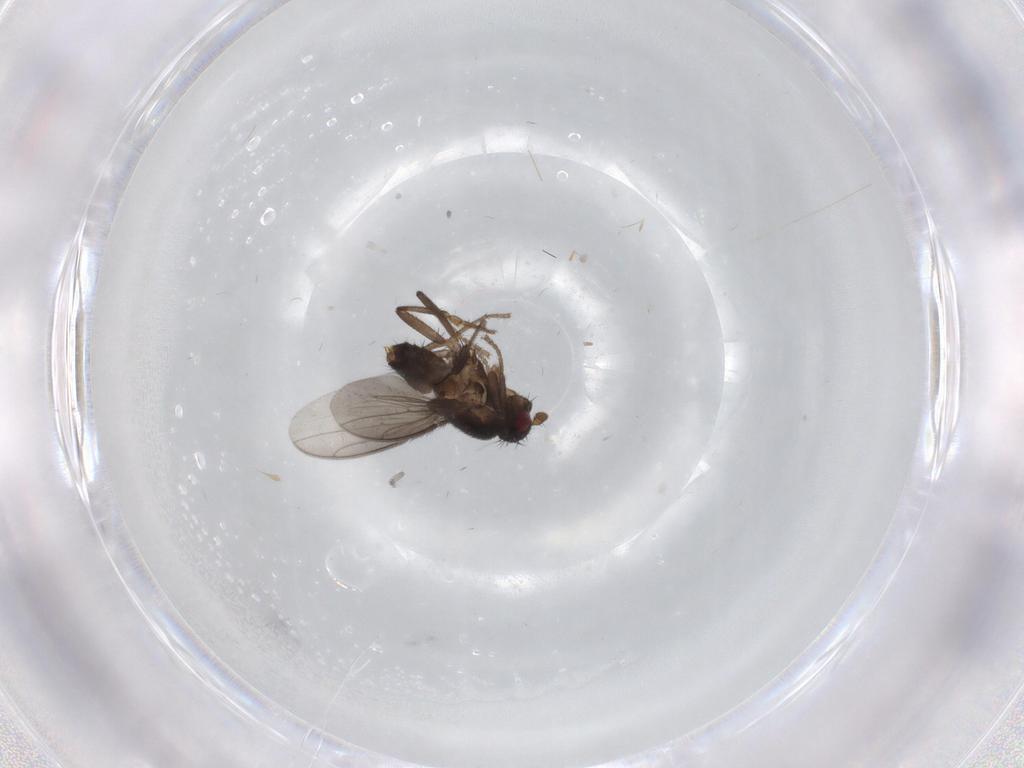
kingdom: Animalia
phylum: Arthropoda
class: Insecta
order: Diptera
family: Sphaeroceridae
